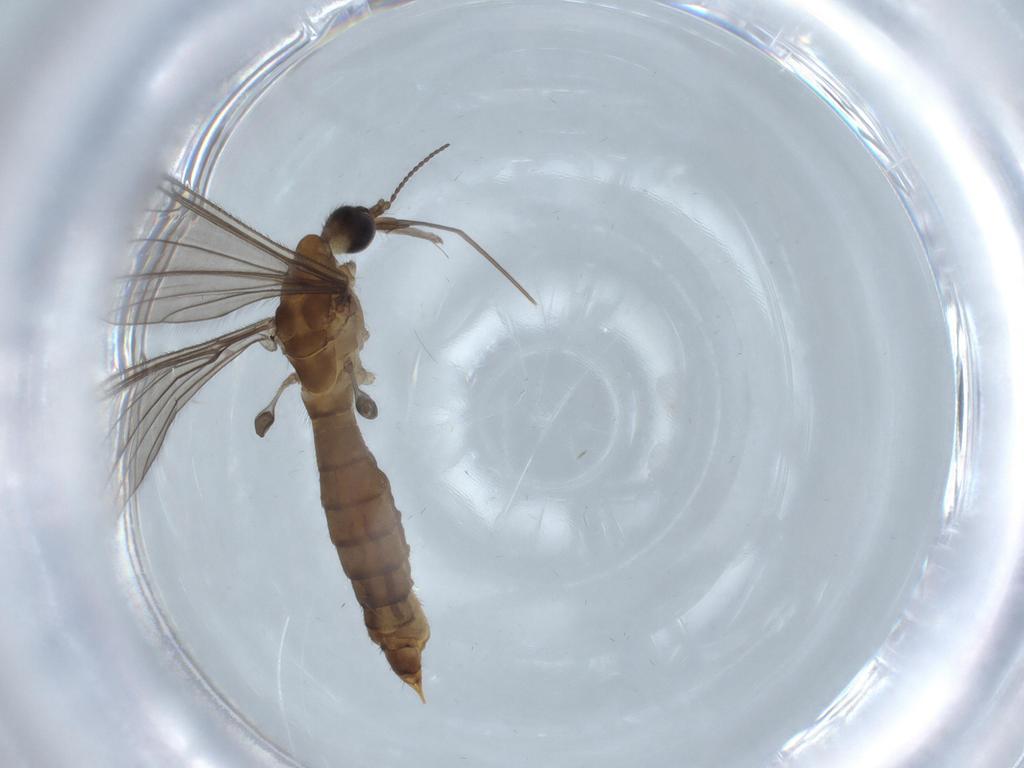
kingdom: Animalia
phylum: Arthropoda
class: Insecta
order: Diptera
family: Limoniidae
